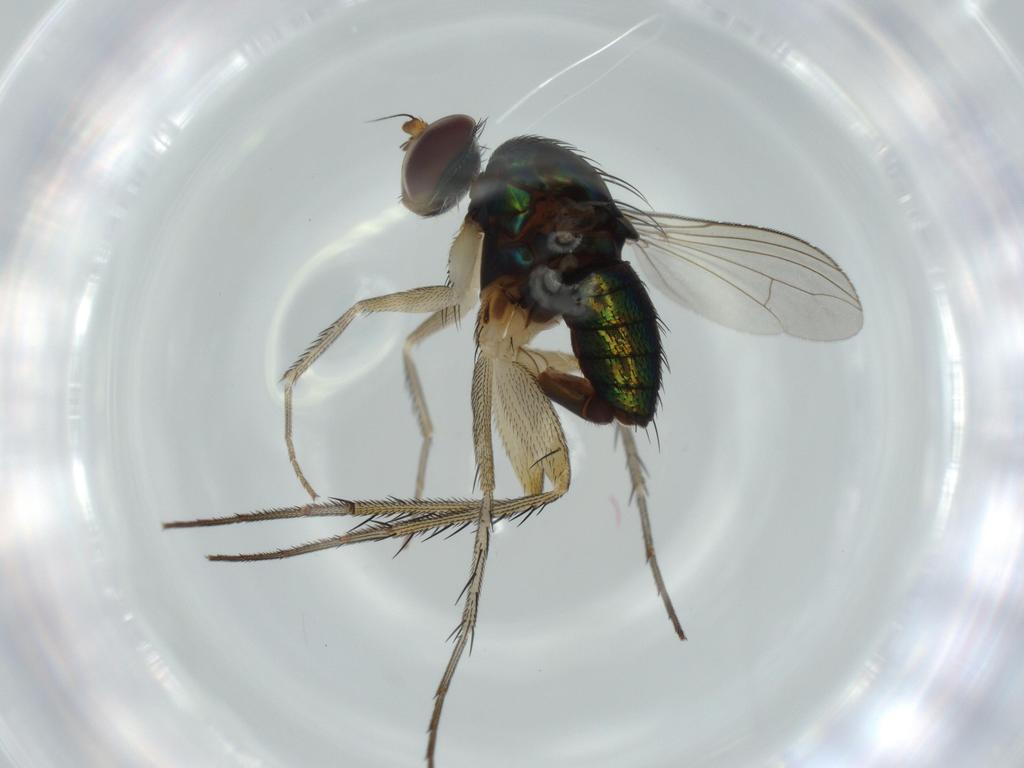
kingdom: Animalia
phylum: Arthropoda
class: Insecta
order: Diptera
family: Dolichopodidae
